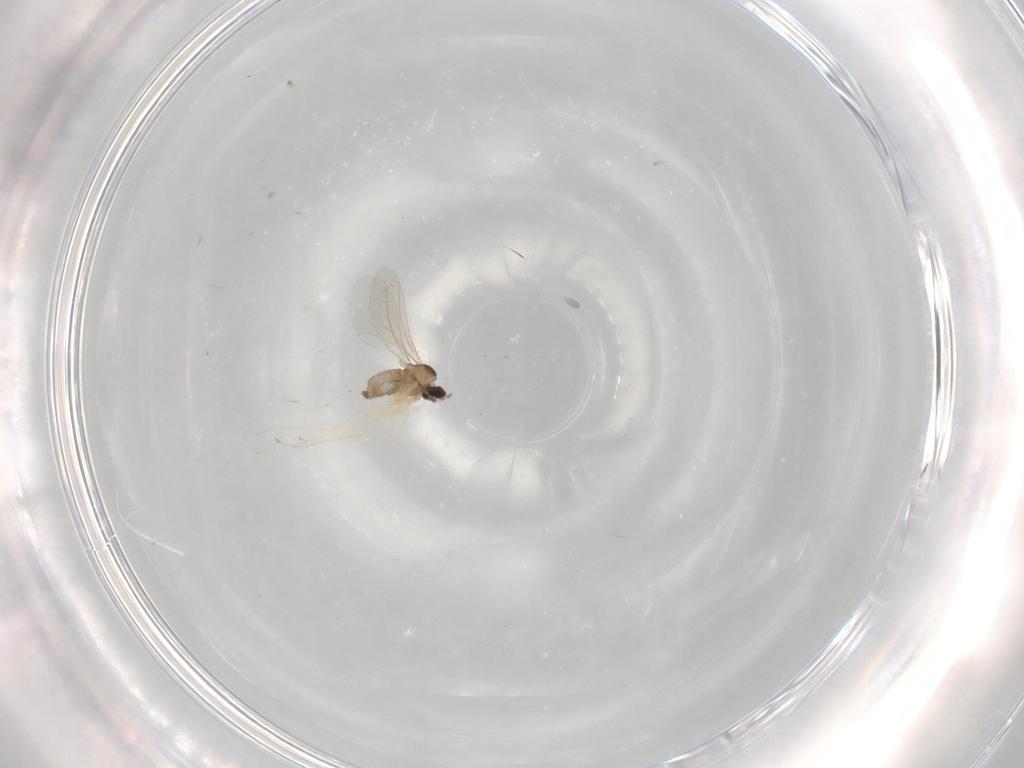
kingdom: Animalia
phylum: Arthropoda
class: Insecta
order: Diptera
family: Cecidomyiidae
